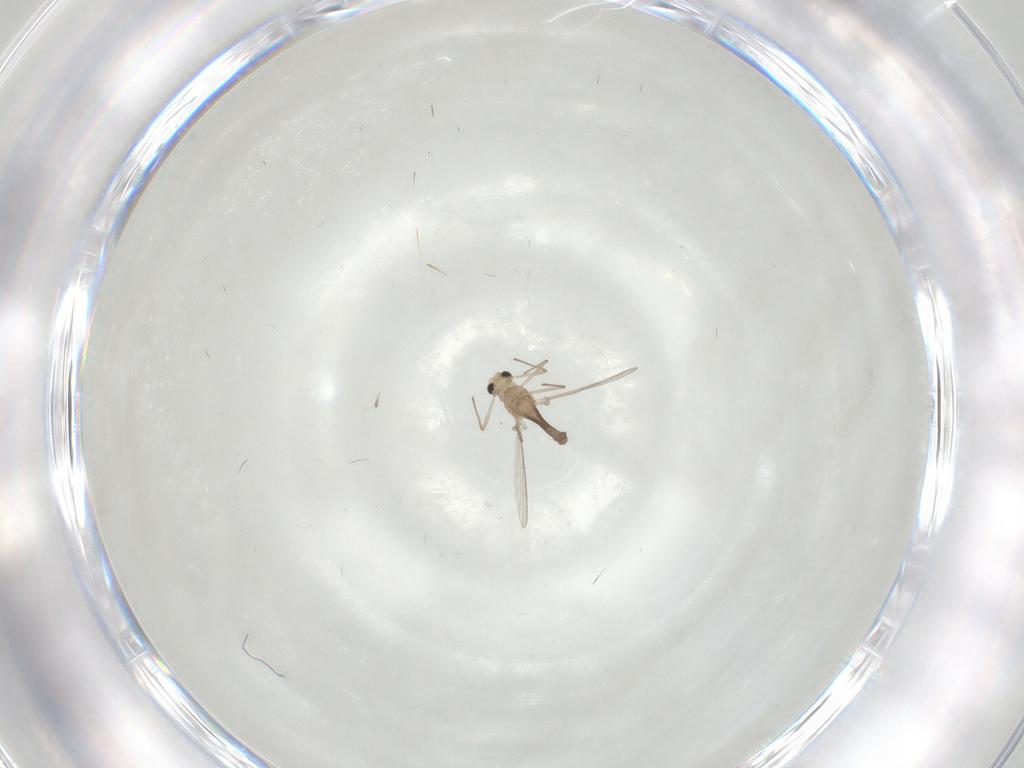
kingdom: Animalia
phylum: Arthropoda
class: Insecta
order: Diptera
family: Chironomidae
